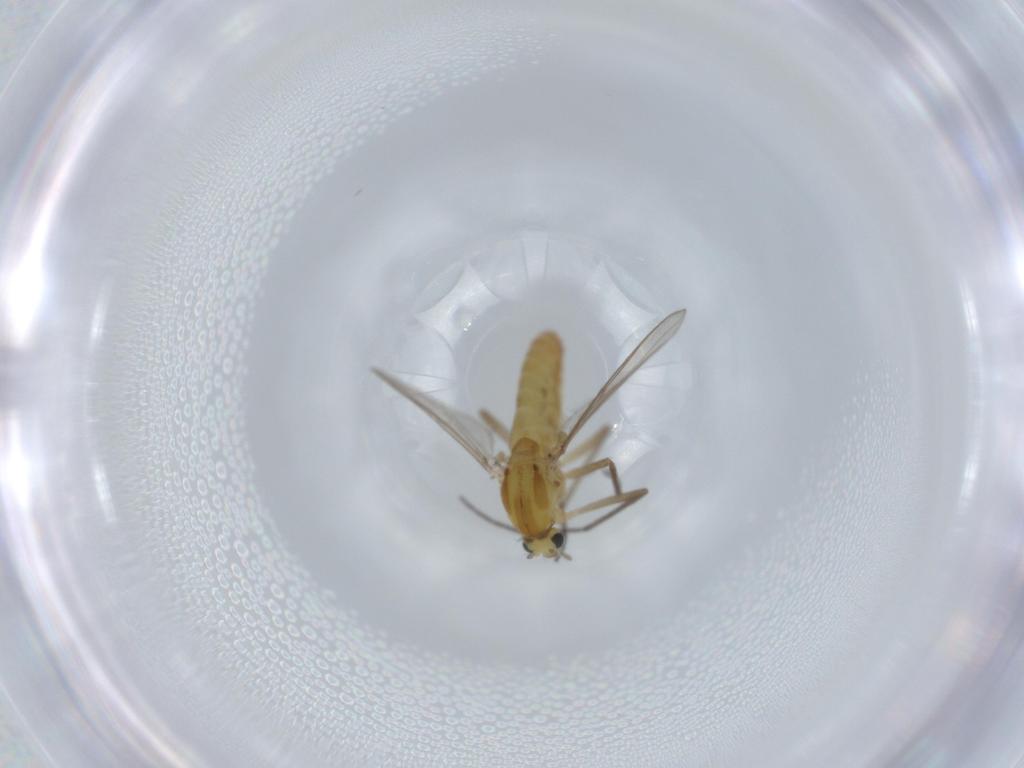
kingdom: Animalia
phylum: Arthropoda
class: Insecta
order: Diptera
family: Chironomidae
